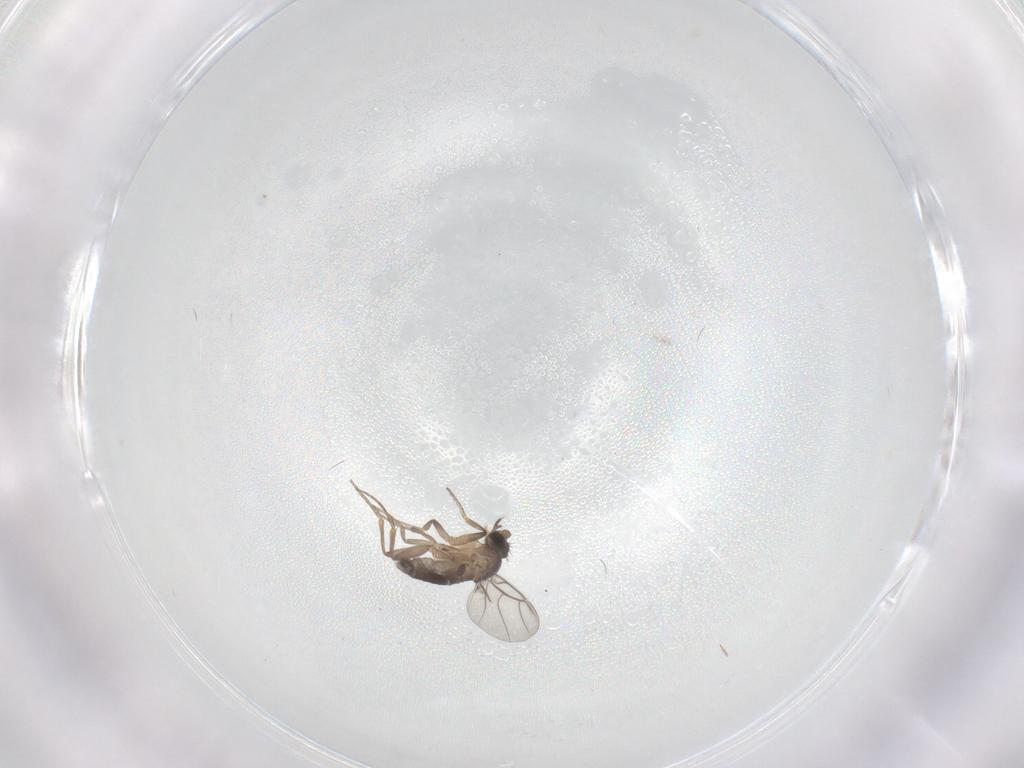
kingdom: Animalia
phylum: Arthropoda
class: Insecta
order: Diptera
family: Phoridae
